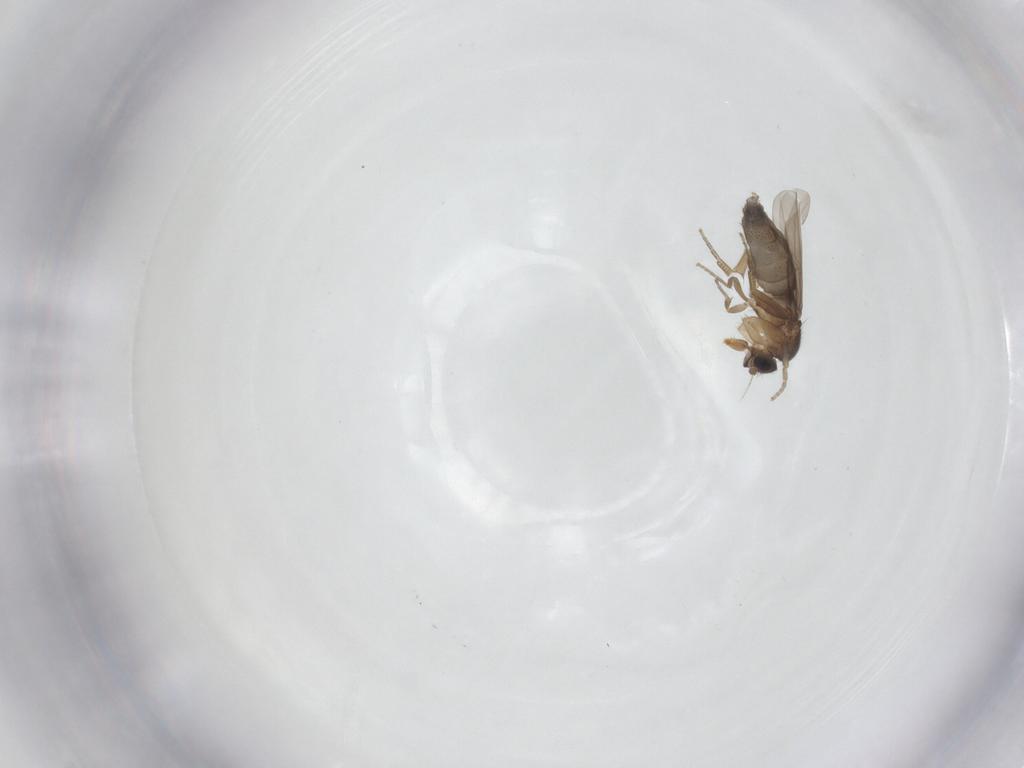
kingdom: Animalia
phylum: Arthropoda
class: Insecta
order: Diptera
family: Phoridae
